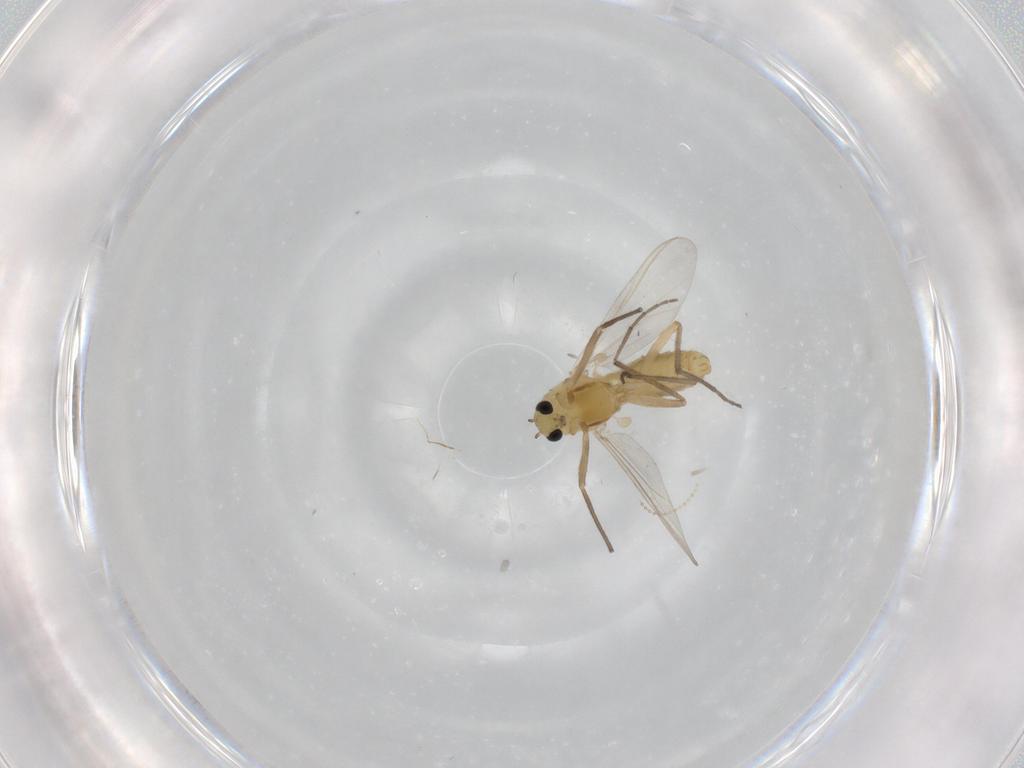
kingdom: Animalia
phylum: Arthropoda
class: Insecta
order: Diptera
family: Chironomidae
